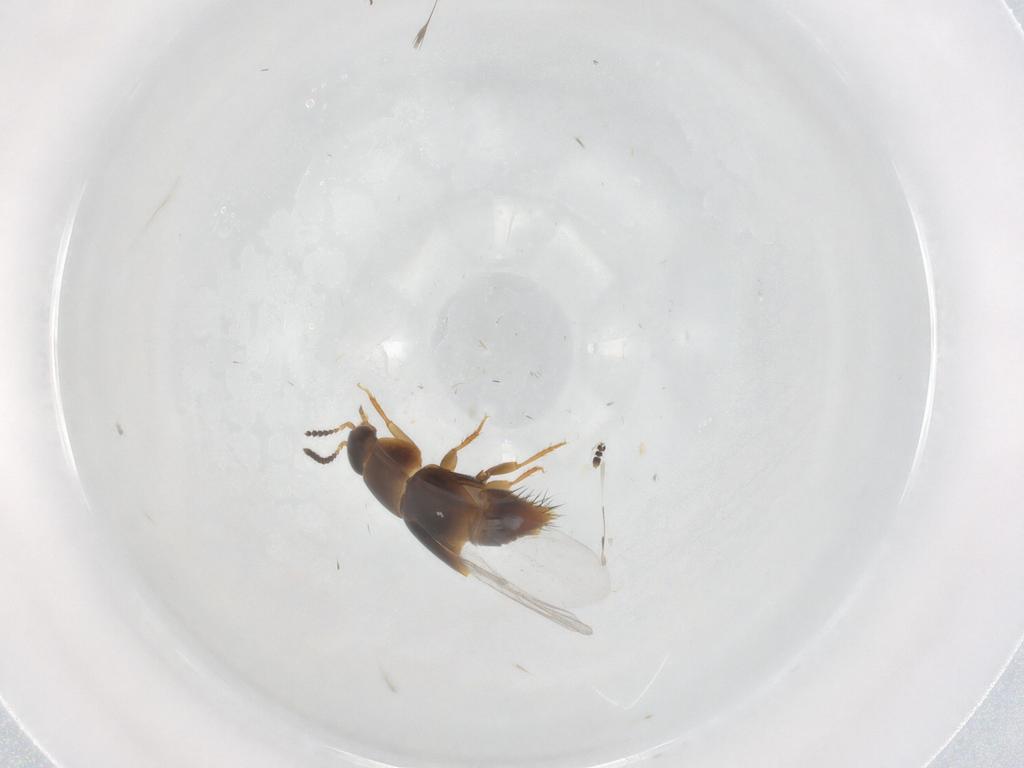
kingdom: Animalia
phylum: Arthropoda
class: Insecta
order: Coleoptera
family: Staphylinidae
